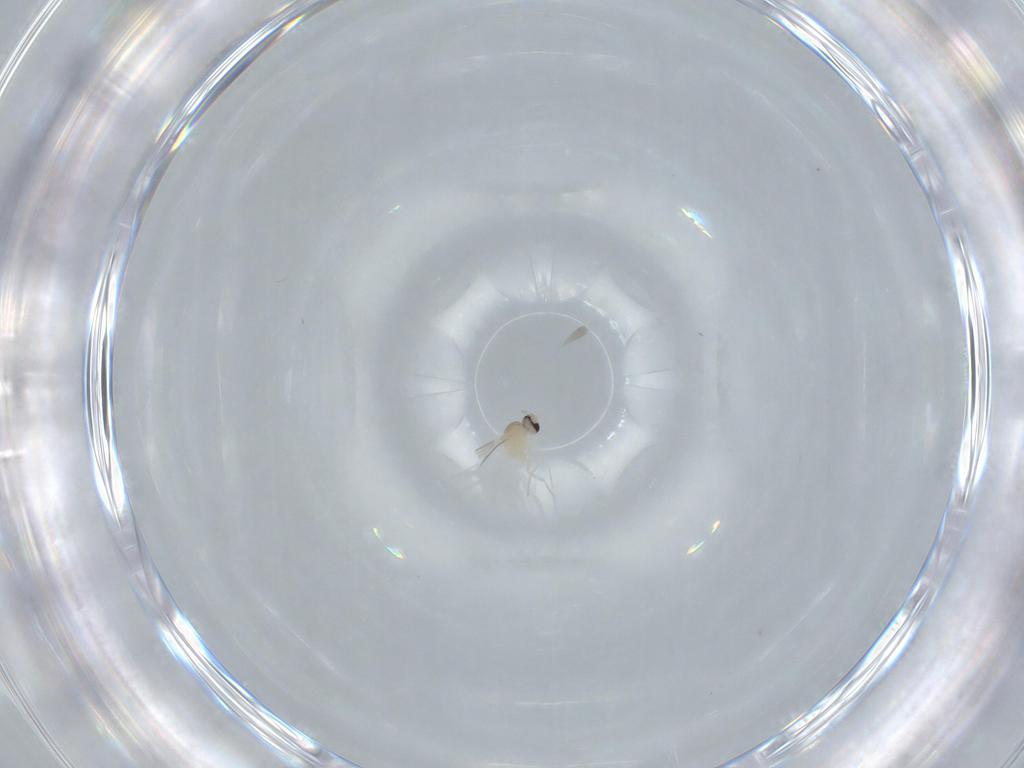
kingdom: Animalia
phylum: Arthropoda
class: Insecta
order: Diptera
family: Cecidomyiidae
